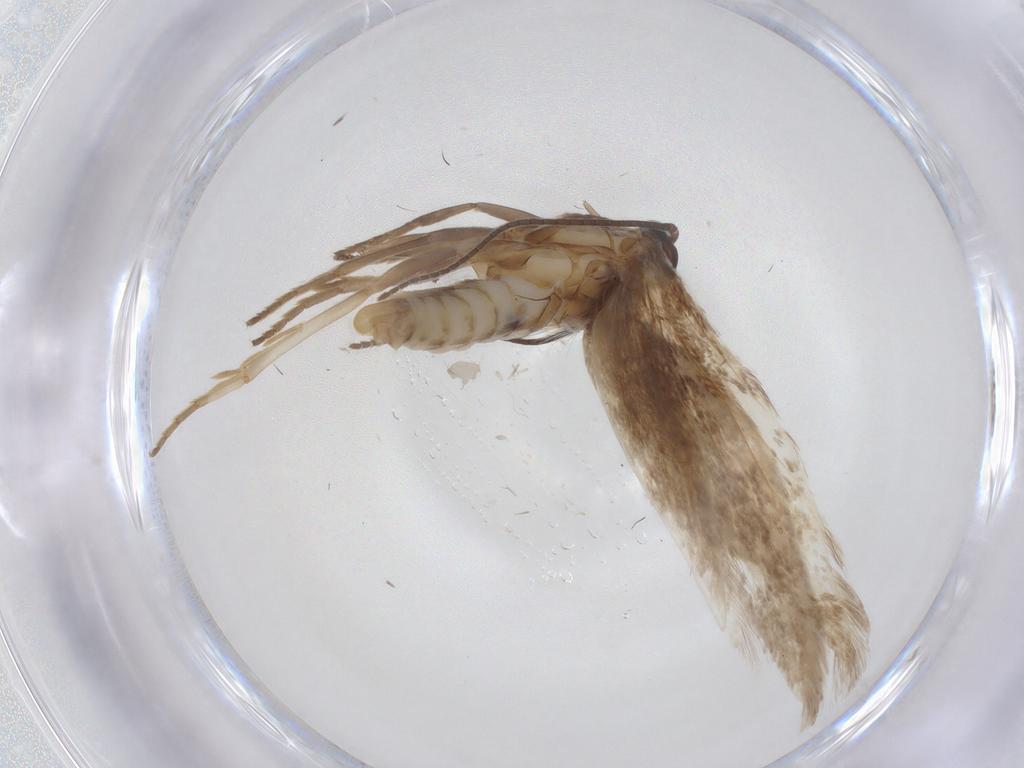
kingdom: Animalia
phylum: Arthropoda
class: Insecta
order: Lepidoptera
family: Elachistidae
